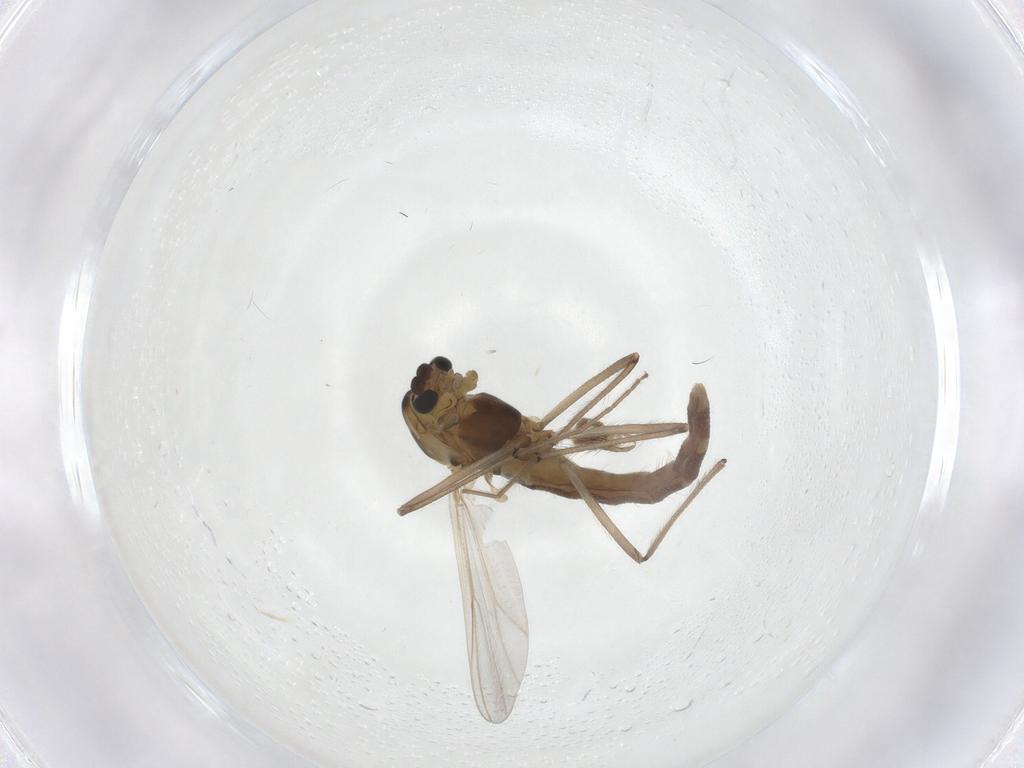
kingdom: Animalia
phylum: Arthropoda
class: Insecta
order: Diptera
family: Chironomidae
